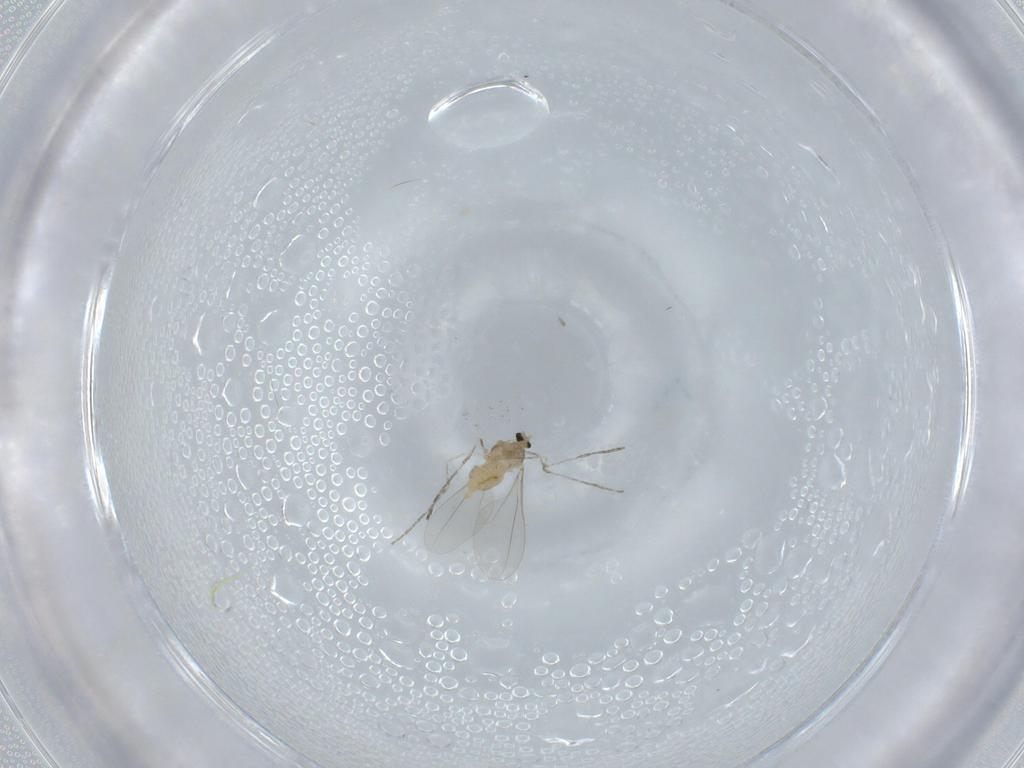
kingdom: Animalia
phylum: Arthropoda
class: Insecta
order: Diptera
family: Cecidomyiidae
